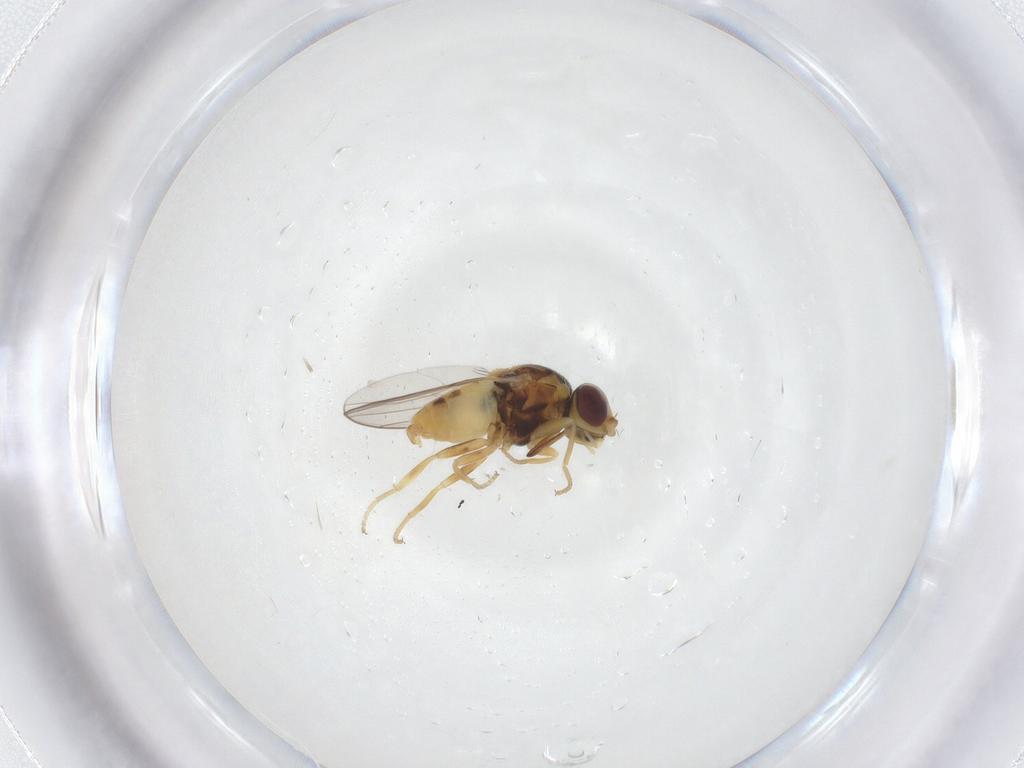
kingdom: Animalia
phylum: Arthropoda
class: Insecta
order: Diptera
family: Chloropidae
